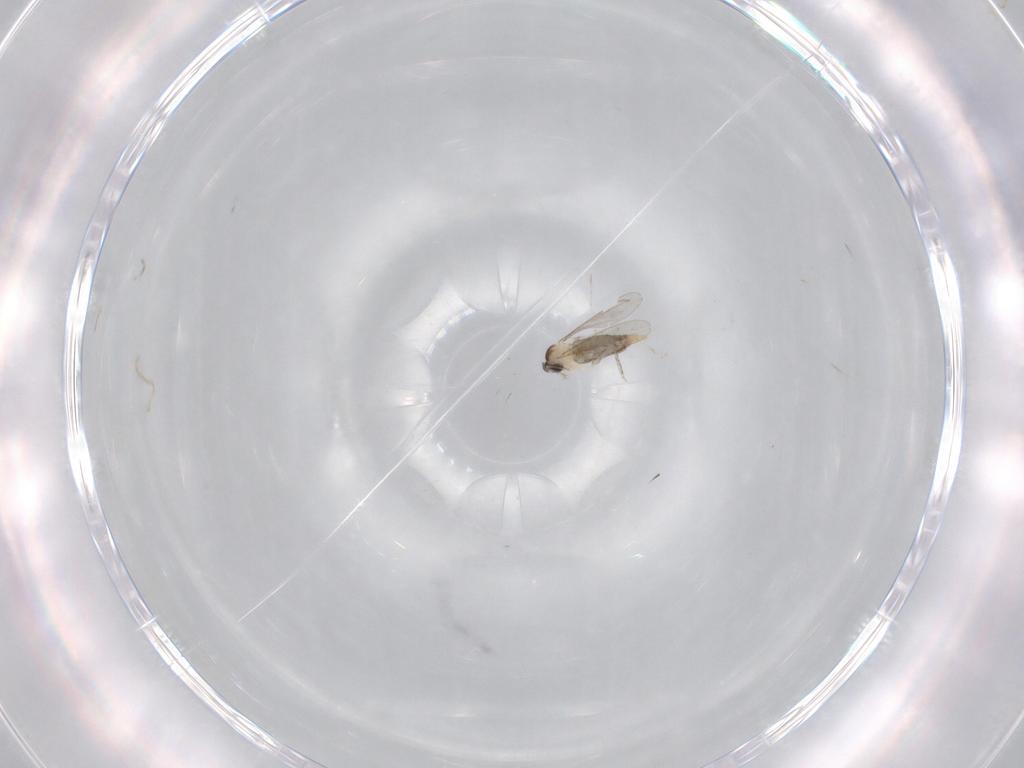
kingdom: Animalia
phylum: Arthropoda
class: Insecta
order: Diptera
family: Cecidomyiidae
